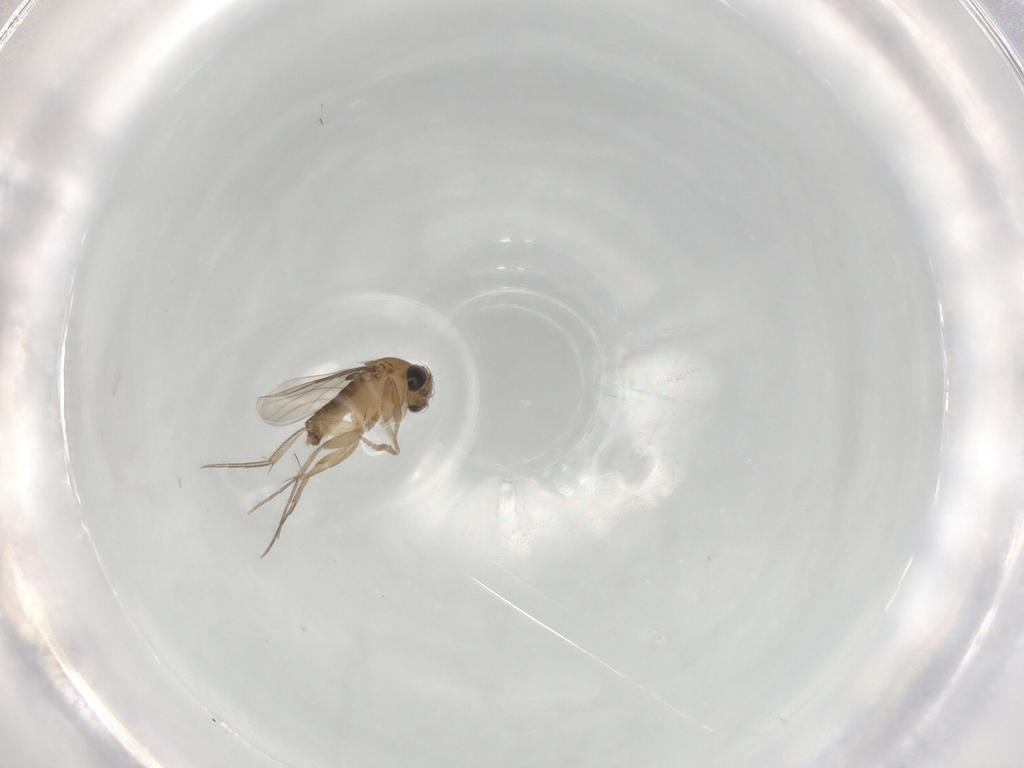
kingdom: Animalia
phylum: Arthropoda
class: Insecta
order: Diptera
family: Phoridae
